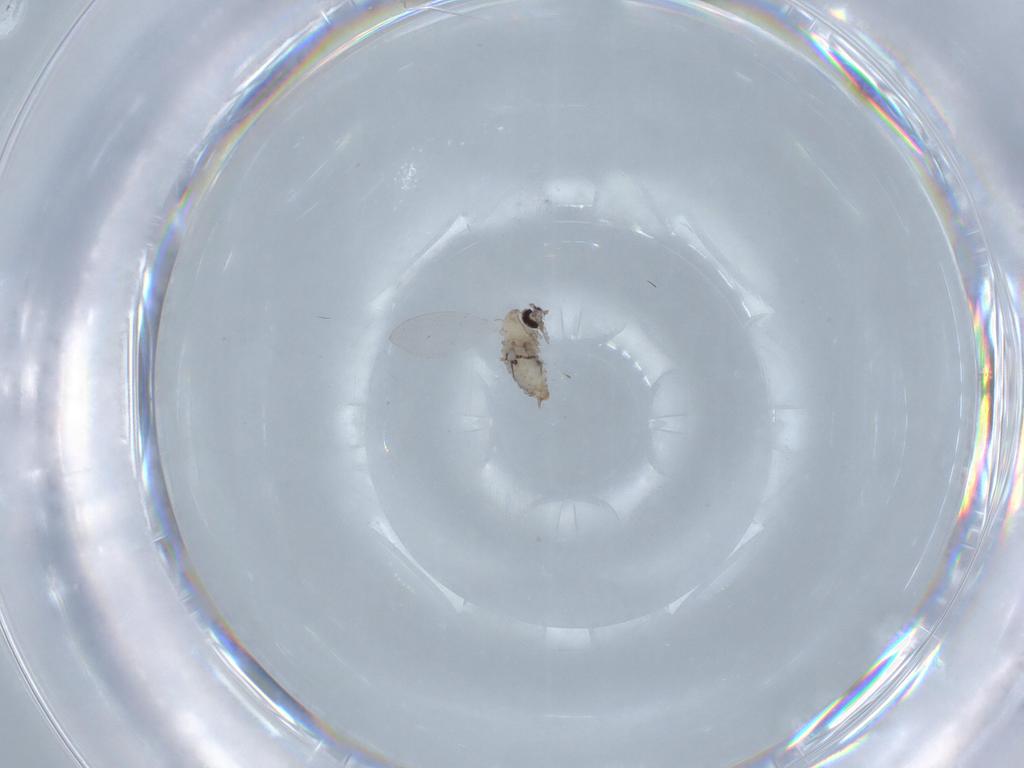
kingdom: Animalia
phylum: Arthropoda
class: Insecta
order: Diptera
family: Psychodidae
